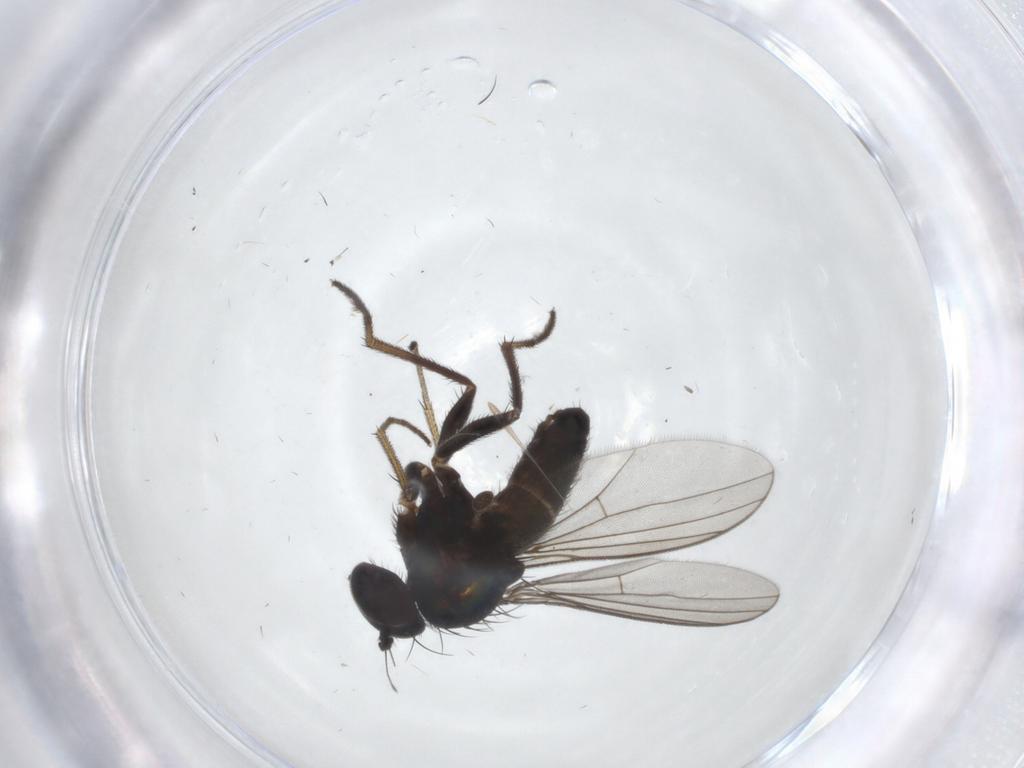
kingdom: Animalia
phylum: Arthropoda
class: Insecta
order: Diptera
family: Dolichopodidae
